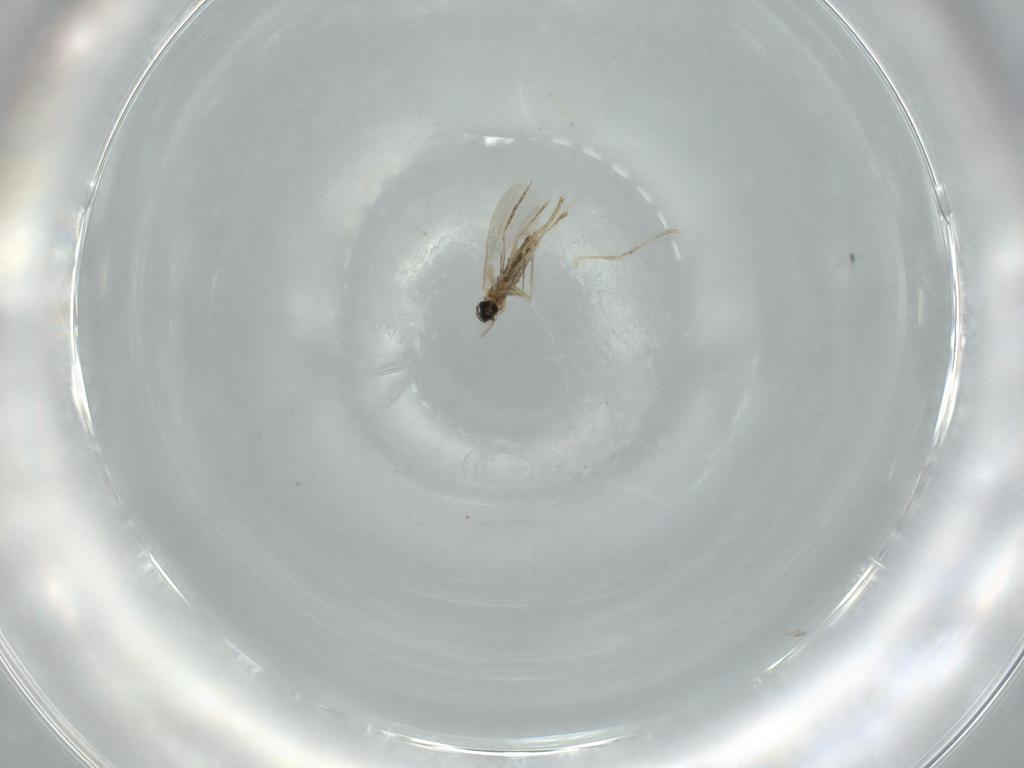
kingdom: Animalia
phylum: Arthropoda
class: Insecta
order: Diptera
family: Cecidomyiidae
